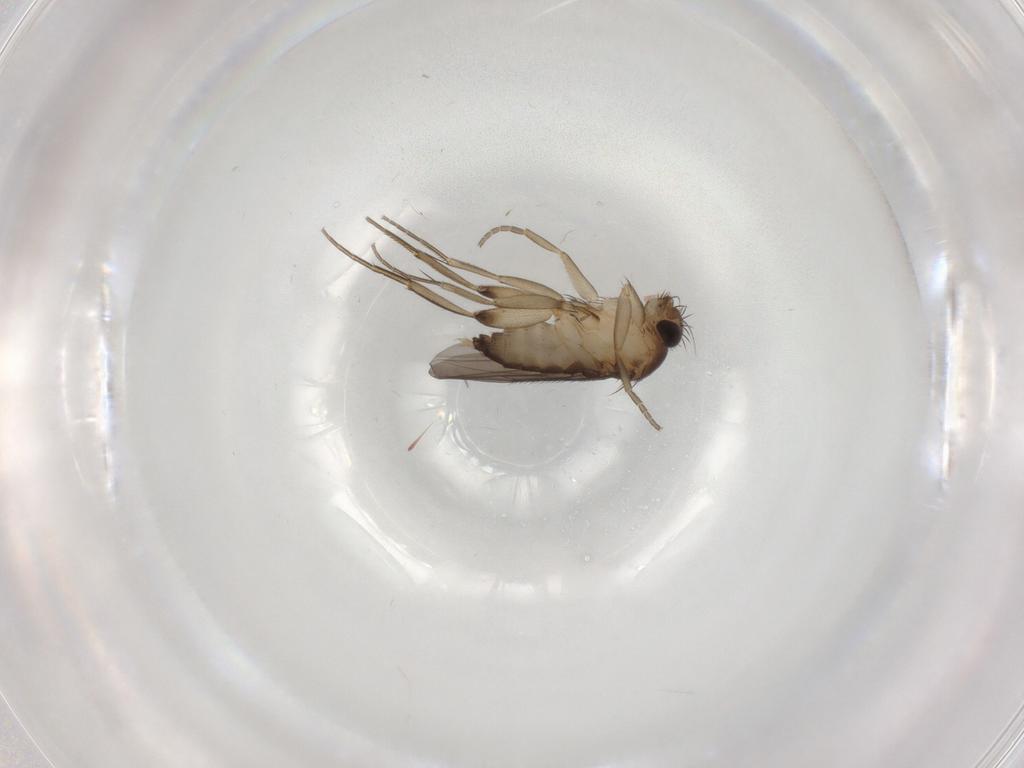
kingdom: Animalia
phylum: Arthropoda
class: Insecta
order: Diptera
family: Phoridae
